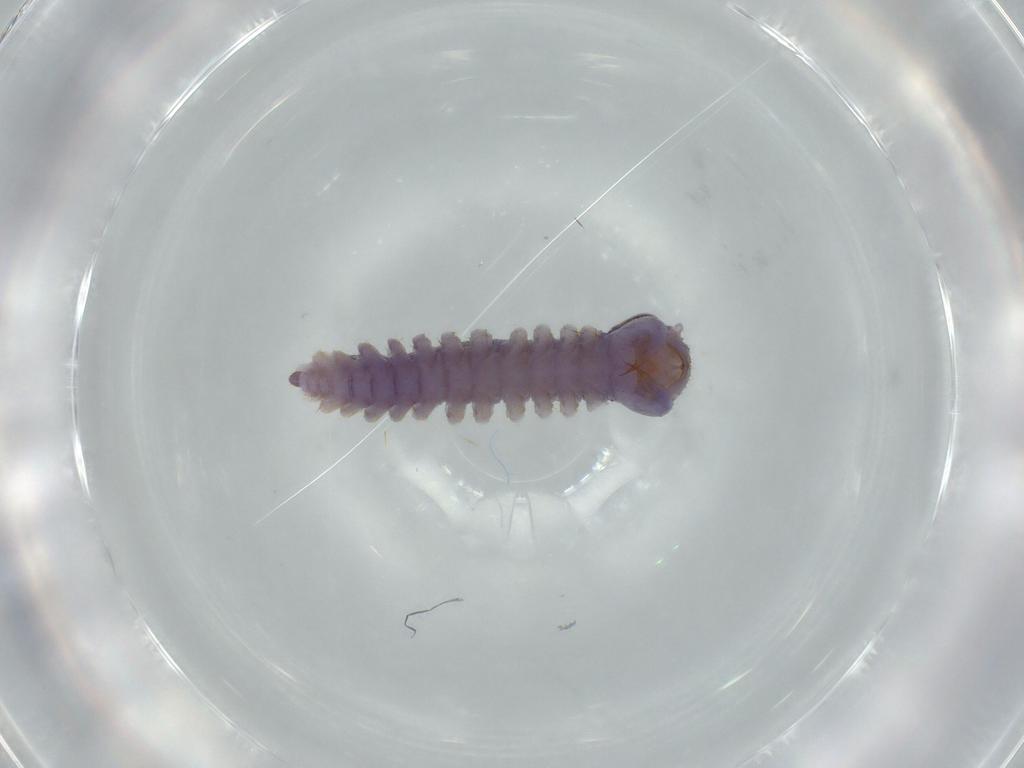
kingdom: Animalia
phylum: Arthropoda
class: Chilopoda
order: Scutigeromorpha
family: Scutigeridae
